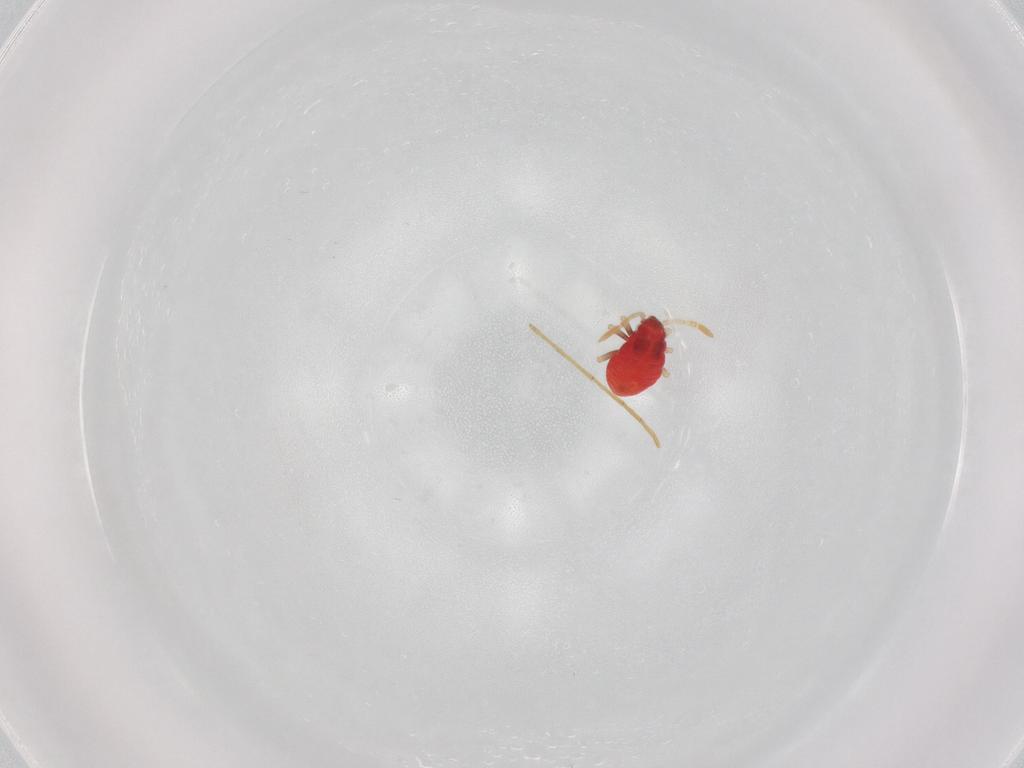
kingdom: Animalia
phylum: Arthropoda
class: Insecta
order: Hemiptera
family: Miridae
